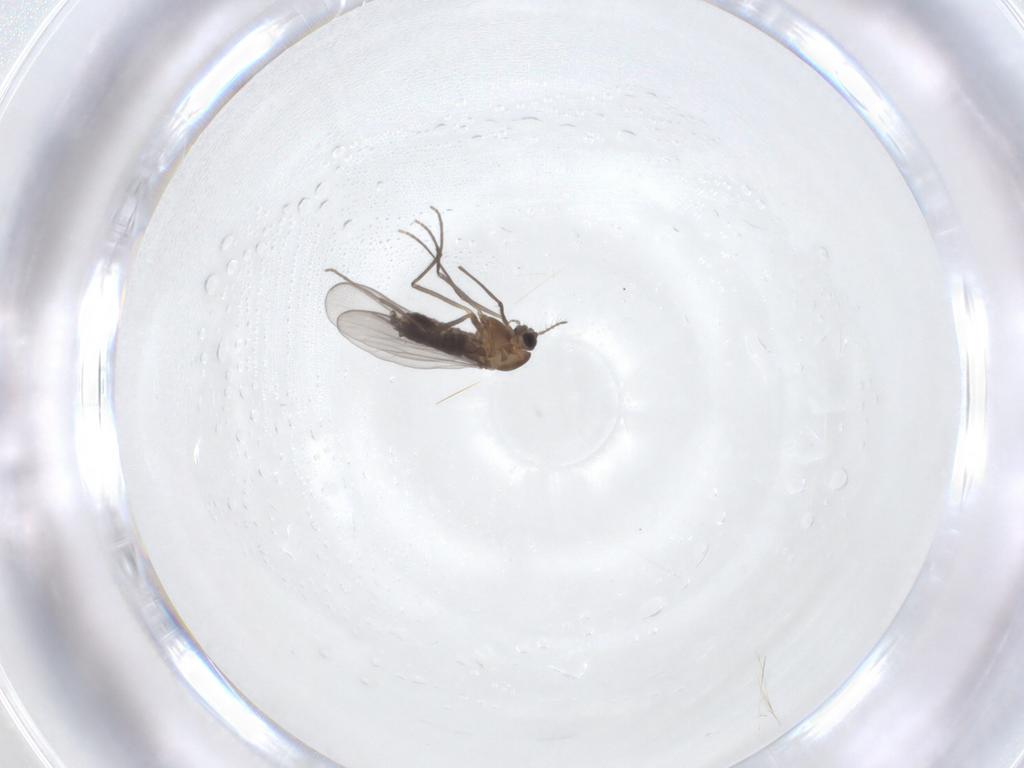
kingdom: Animalia
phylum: Arthropoda
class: Insecta
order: Diptera
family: Chironomidae
